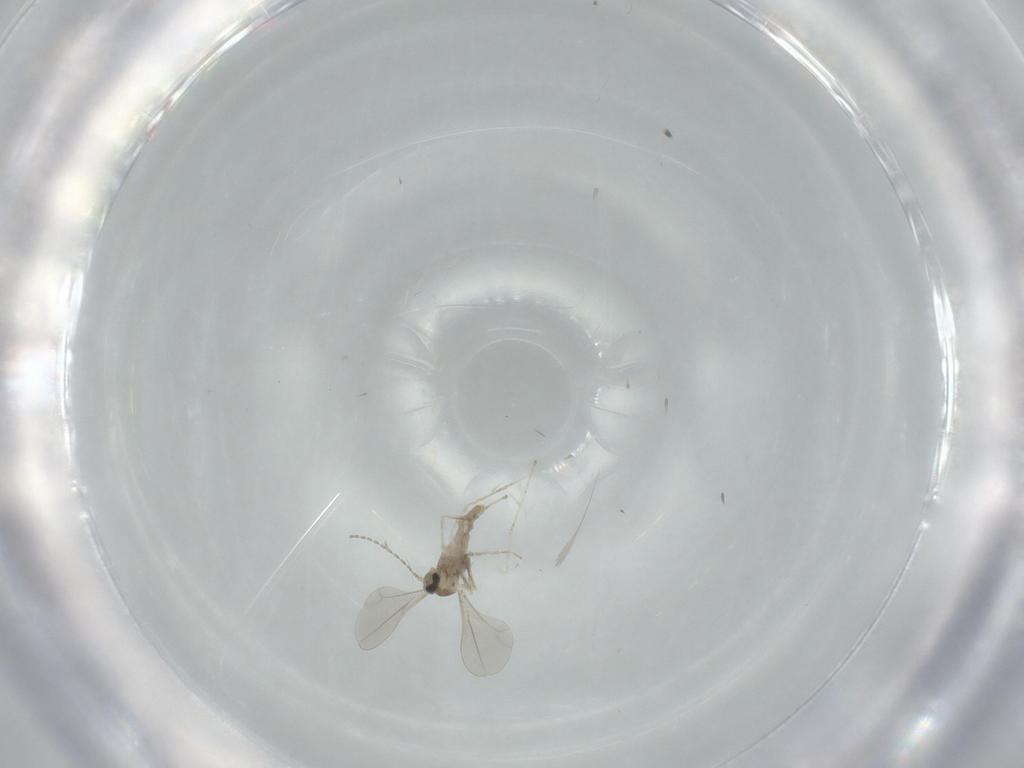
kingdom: Animalia
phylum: Arthropoda
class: Insecta
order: Diptera
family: Cecidomyiidae
